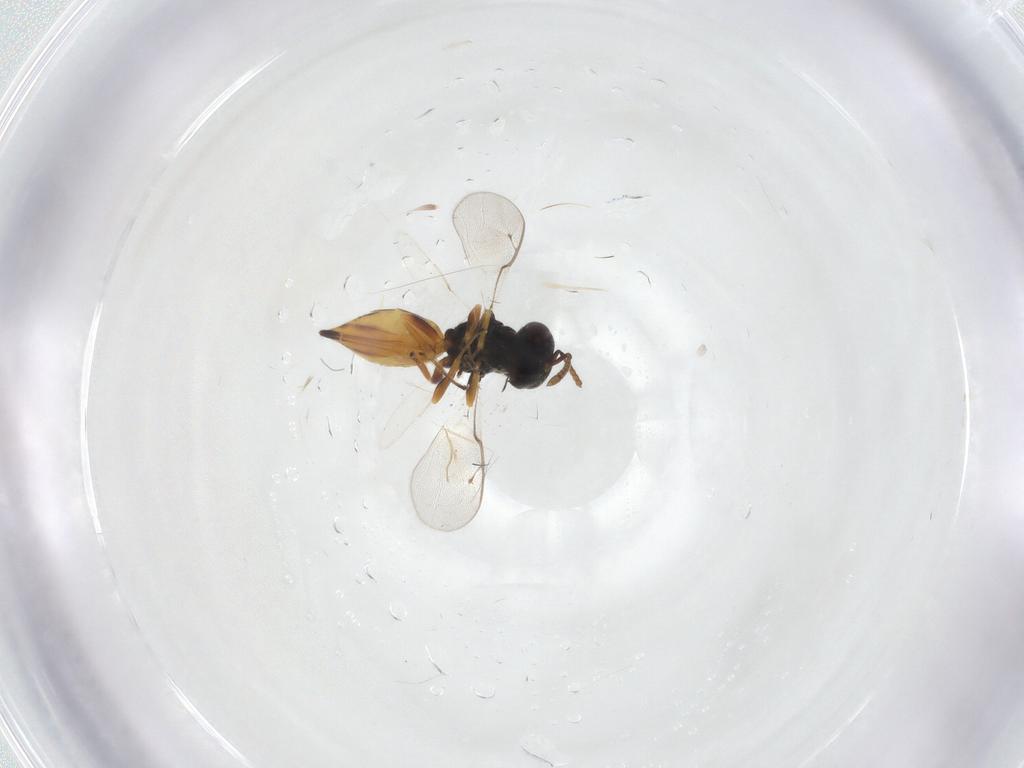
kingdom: Animalia
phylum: Arthropoda
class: Insecta
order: Hymenoptera
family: Pteromalidae
